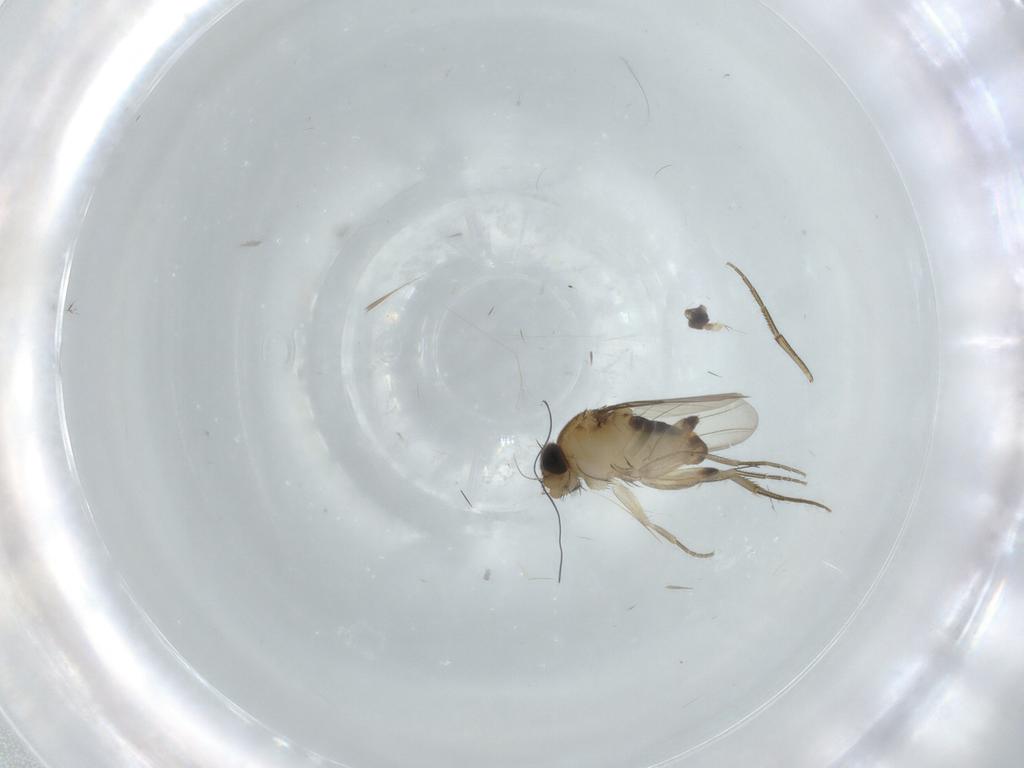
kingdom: Animalia
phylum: Arthropoda
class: Insecta
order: Diptera
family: Phoridae
